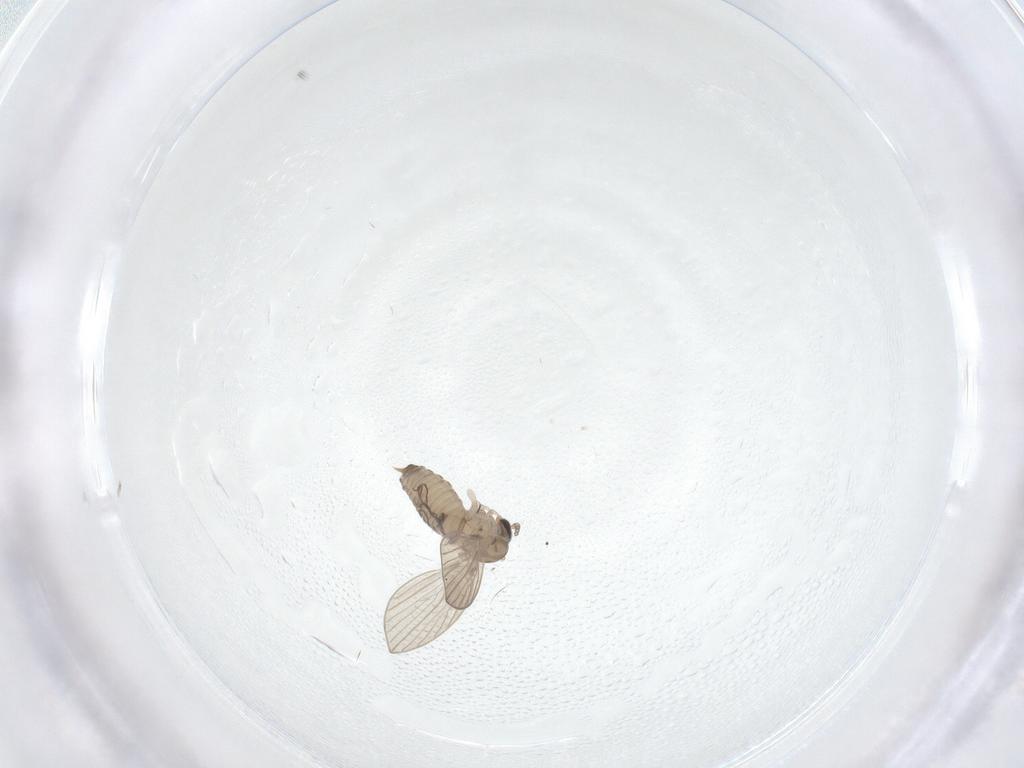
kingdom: Animalia
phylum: Arthropoda
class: Insecta
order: Diptera
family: Psychodidae
